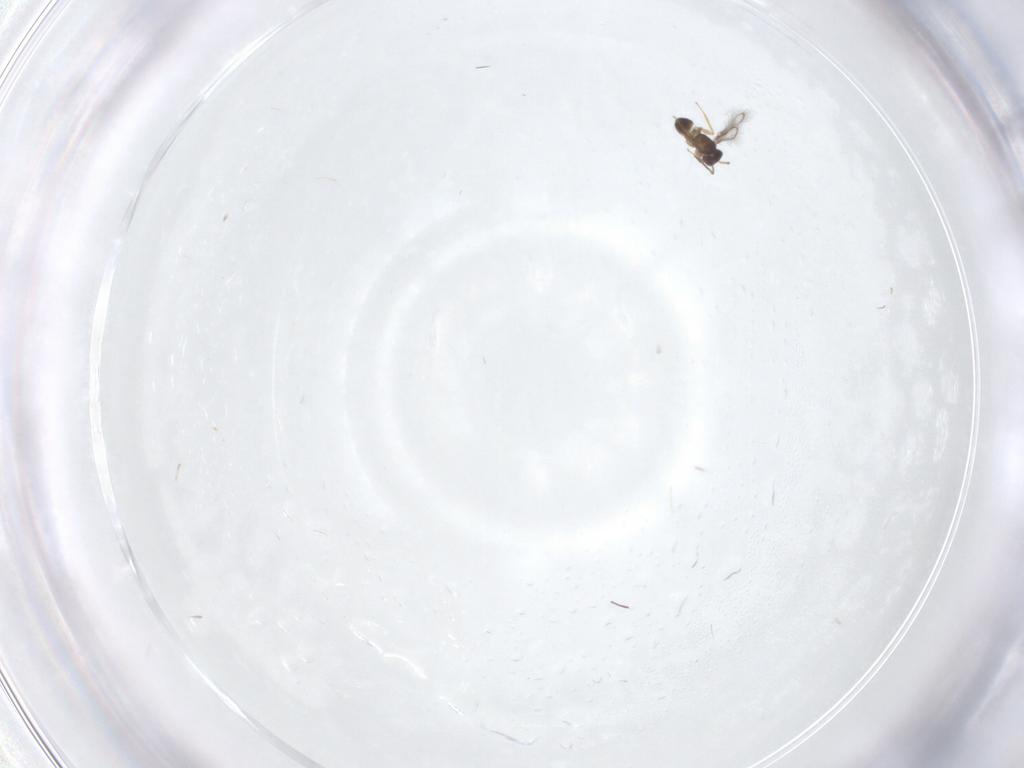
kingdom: Animalia
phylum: Arthropoda
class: Insecta
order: Hymenoptera
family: Mymaridae
